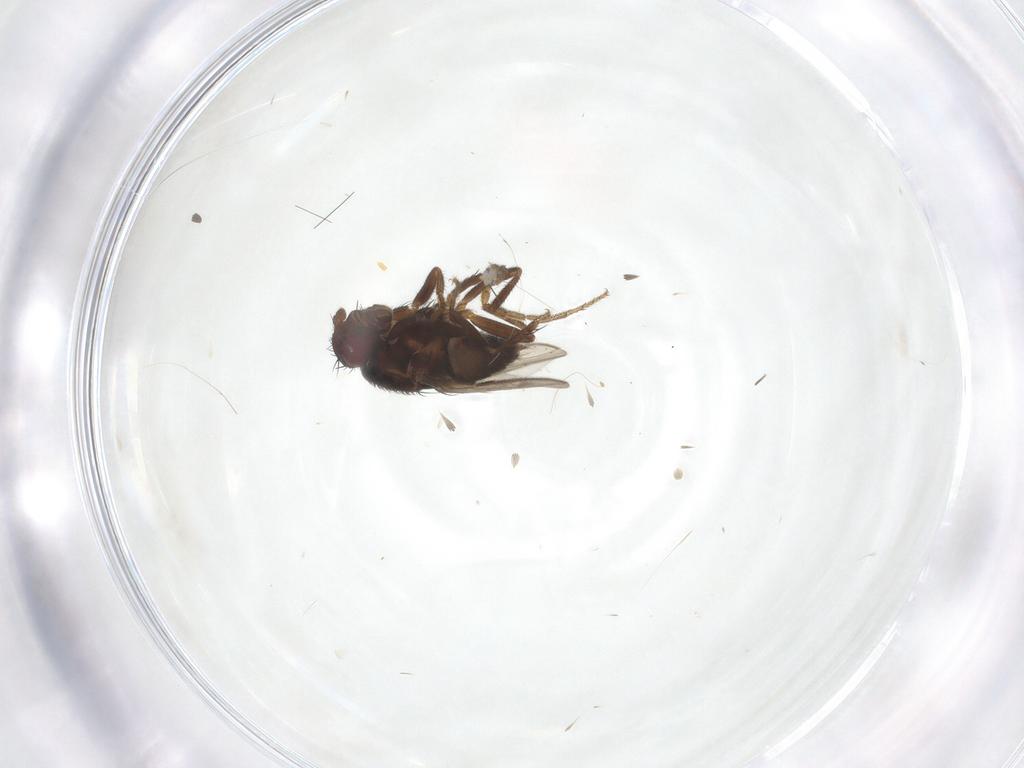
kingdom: Animalia
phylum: Arthropoda
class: Insecta
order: Diptera
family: Sphaeroceridae
